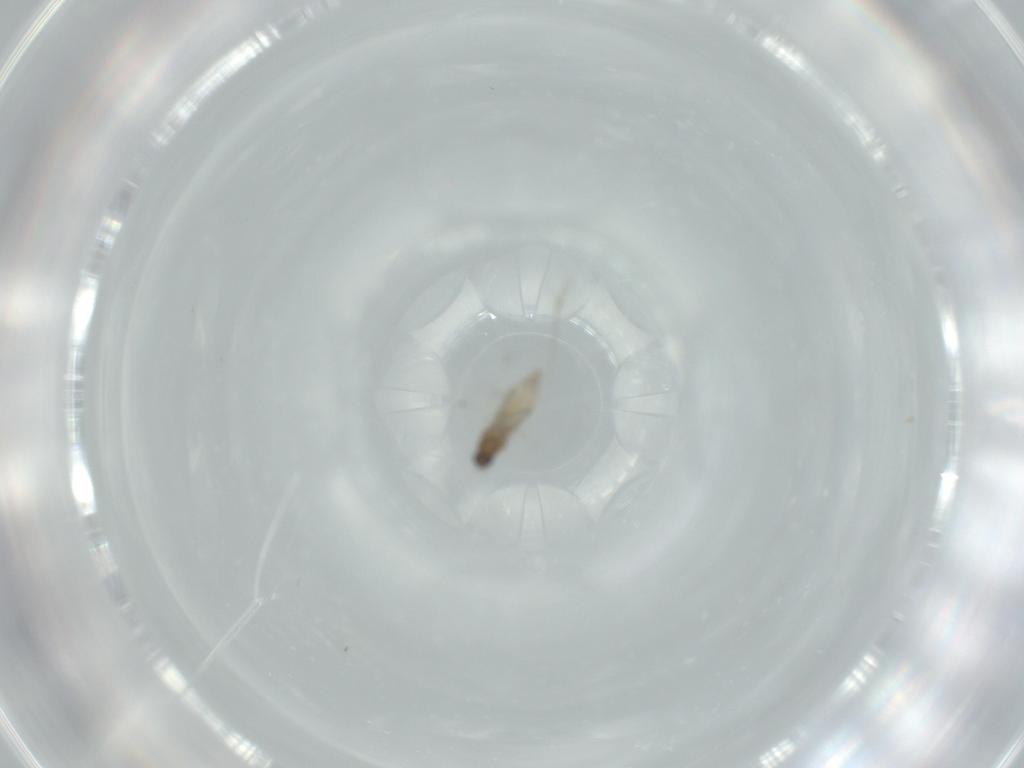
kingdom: Animalia
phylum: Arthropoda
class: Insecta
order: Diptera
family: Cecidomyiidae
